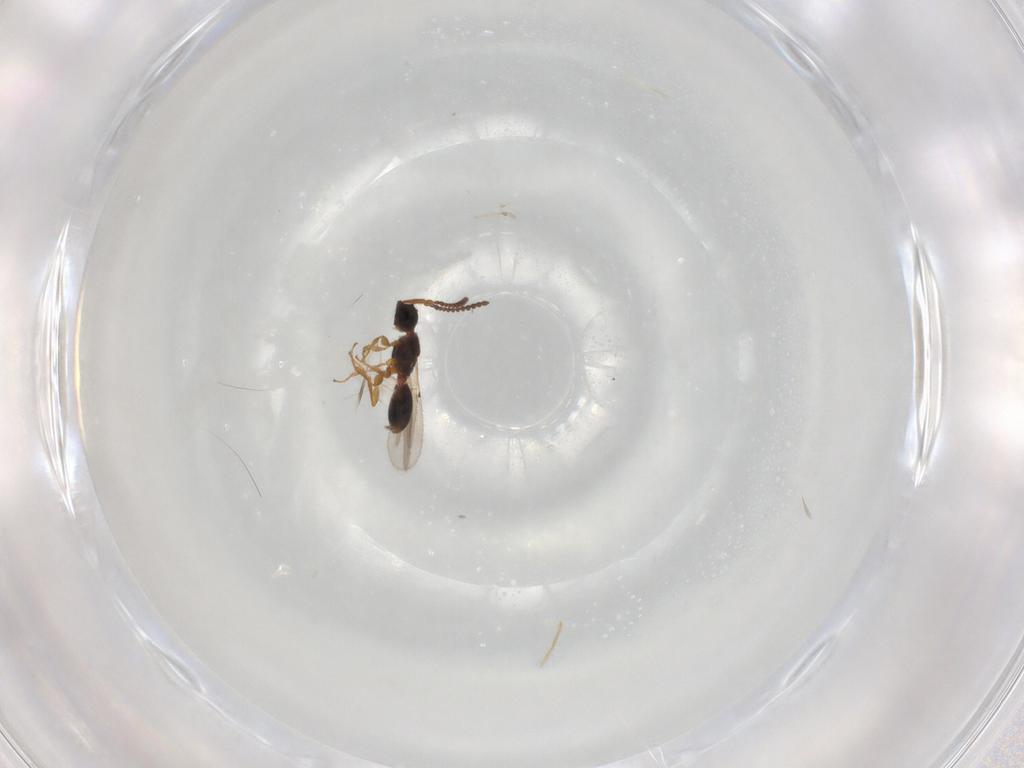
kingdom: Animalia
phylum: Arthropoda
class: Insecta
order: Hymenoptera
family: Diapriidae
